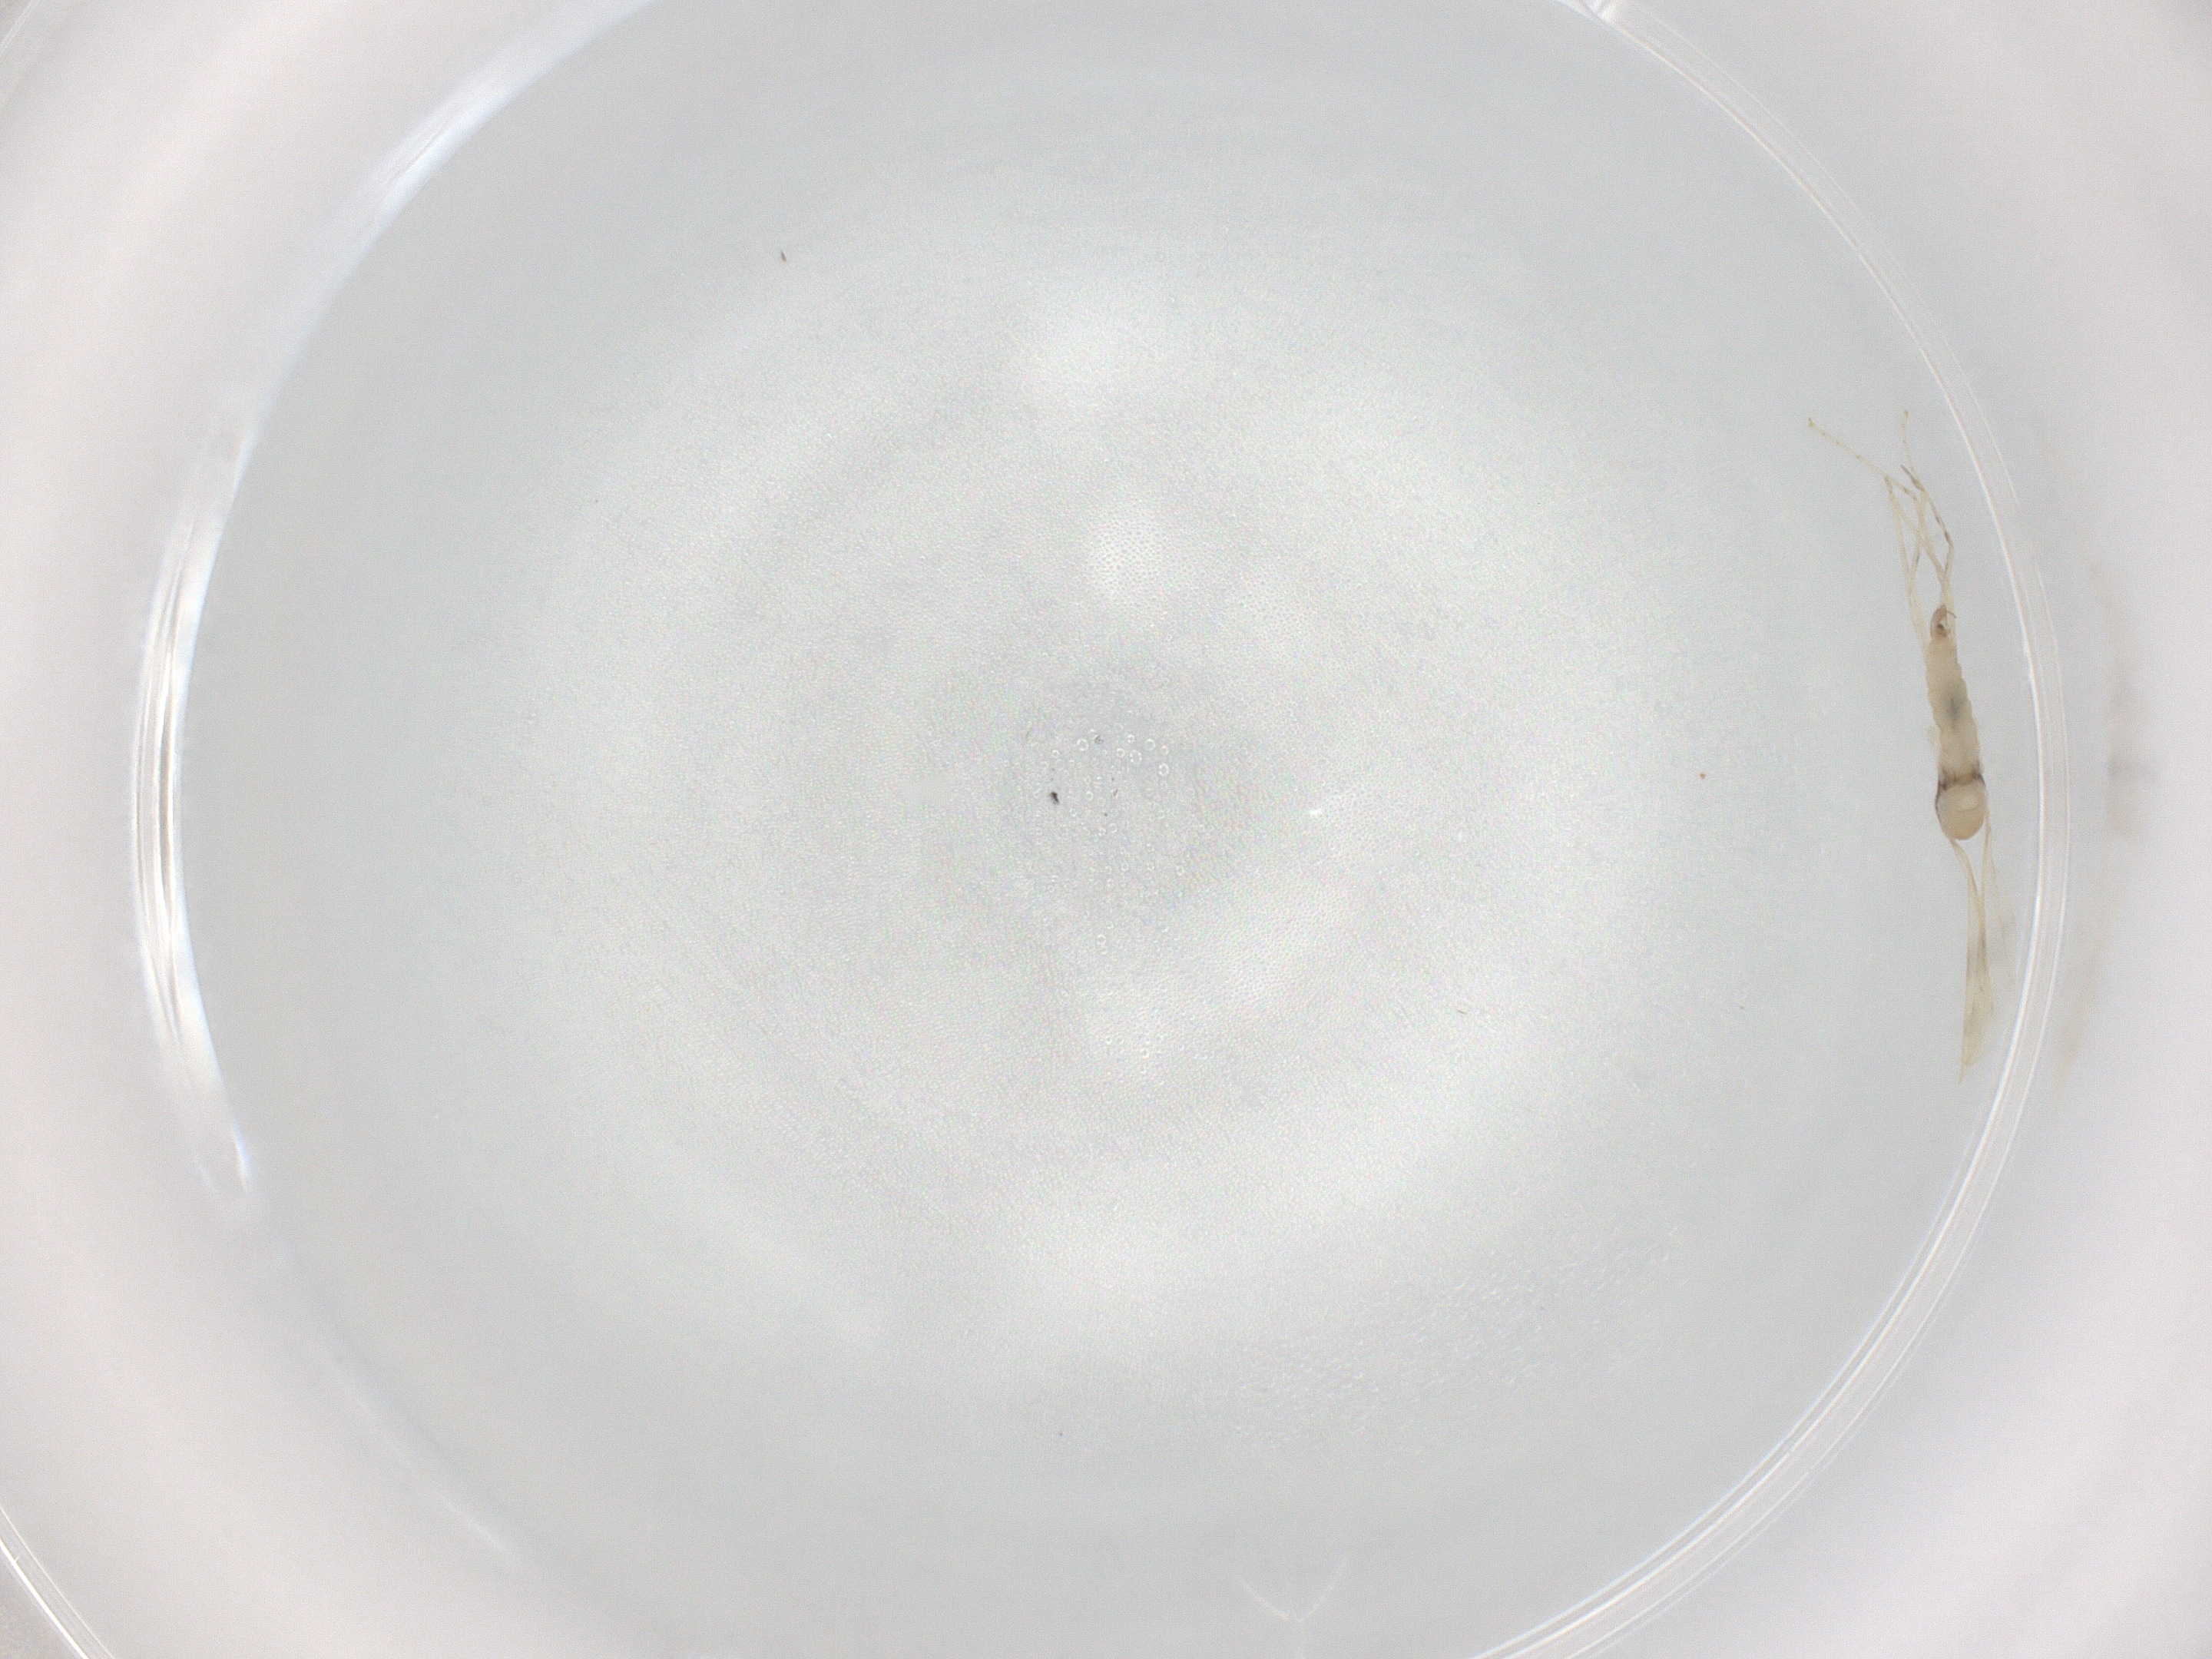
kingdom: Animalia
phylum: Arthropoda
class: Insecta
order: Diptera
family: Cecidomyiidae
